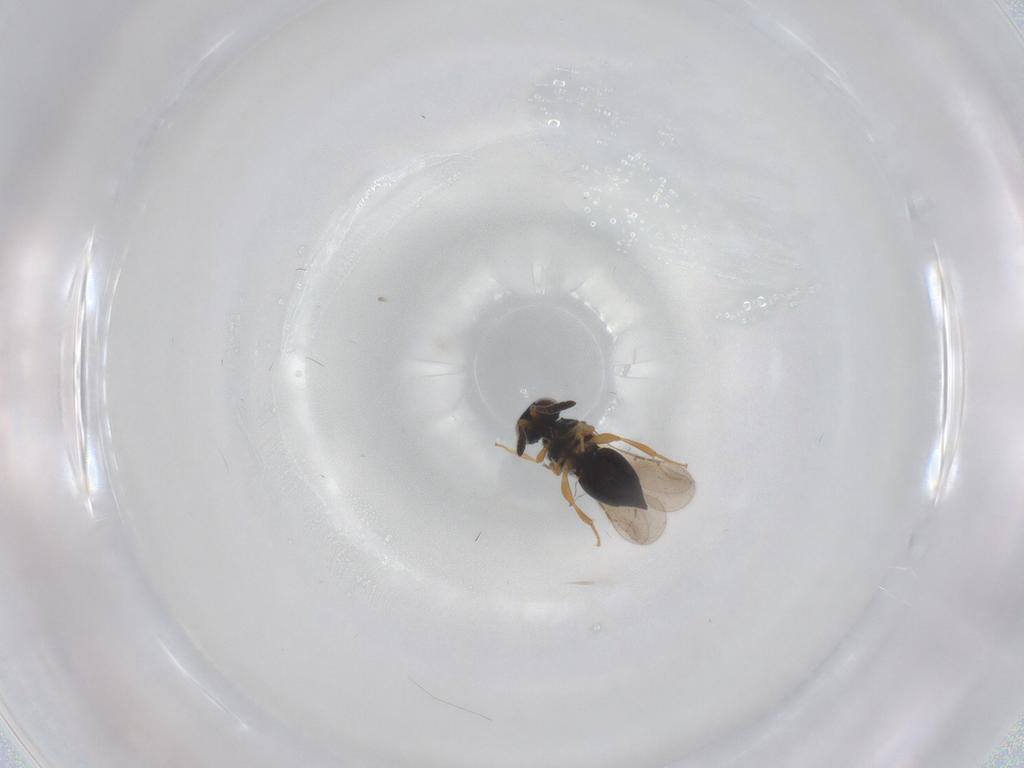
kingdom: Animalia
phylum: Arthropoda
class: Insecta
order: Hymenoptera
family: Ceraphronidae
